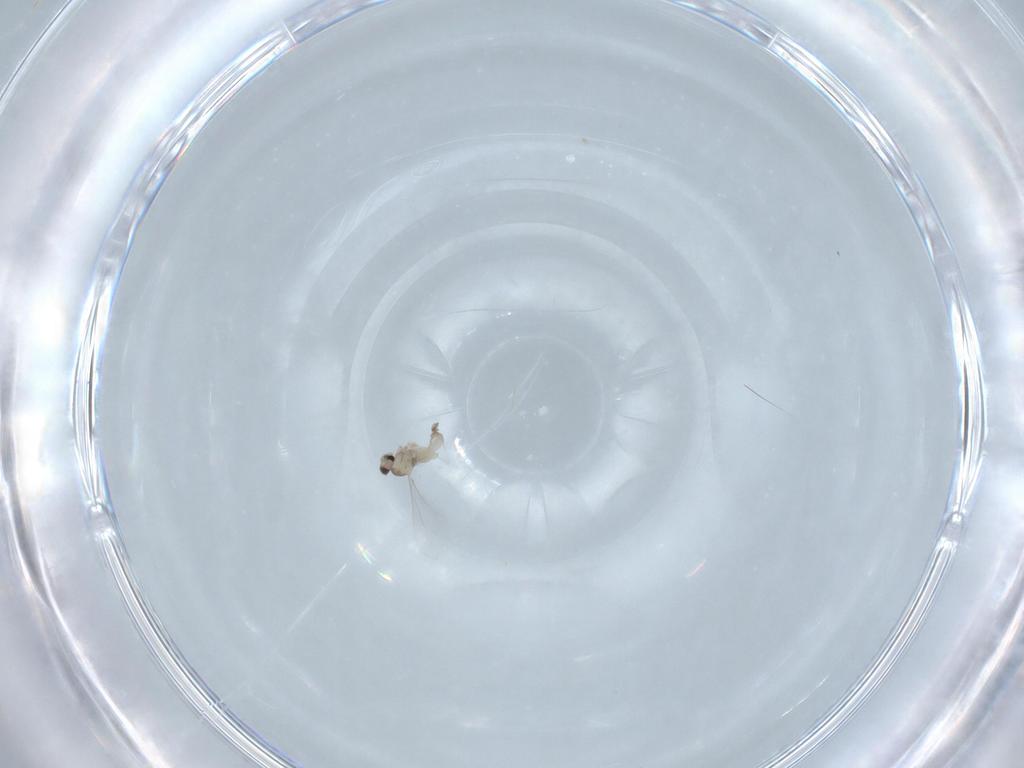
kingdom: Animalia
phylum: Arthropoda
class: Insecta
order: Diptera
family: Cecidomyiidae
